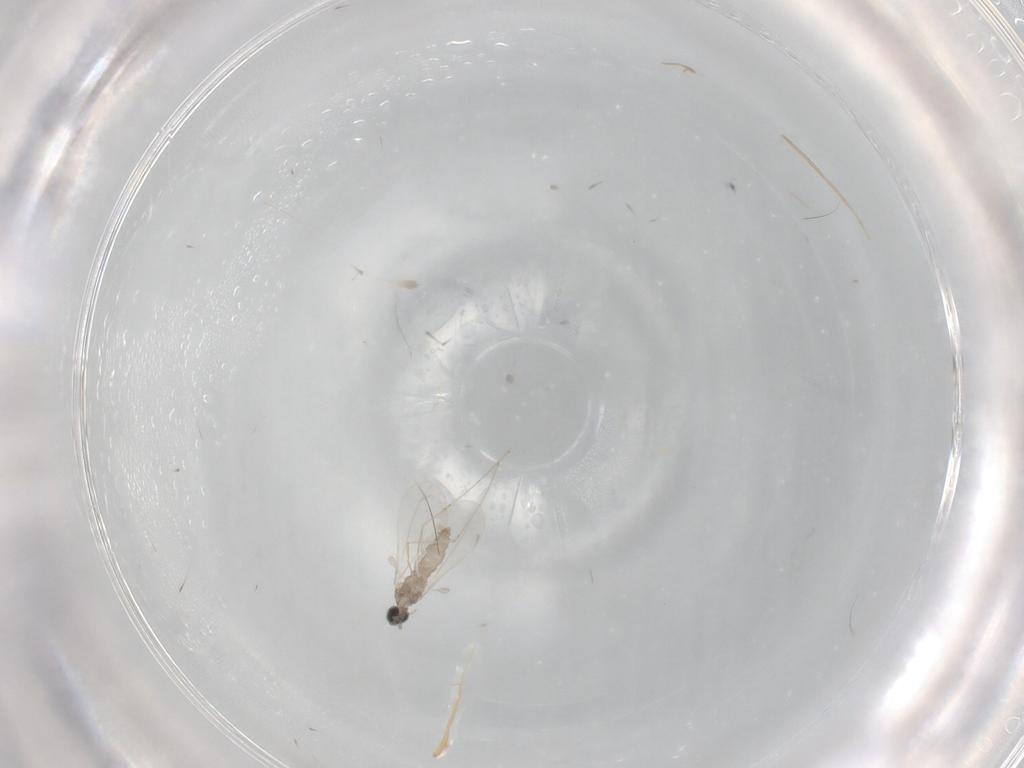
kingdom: Animalia
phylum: Arthropoda
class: Insecta
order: Diptera
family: Cecidomyiidae
